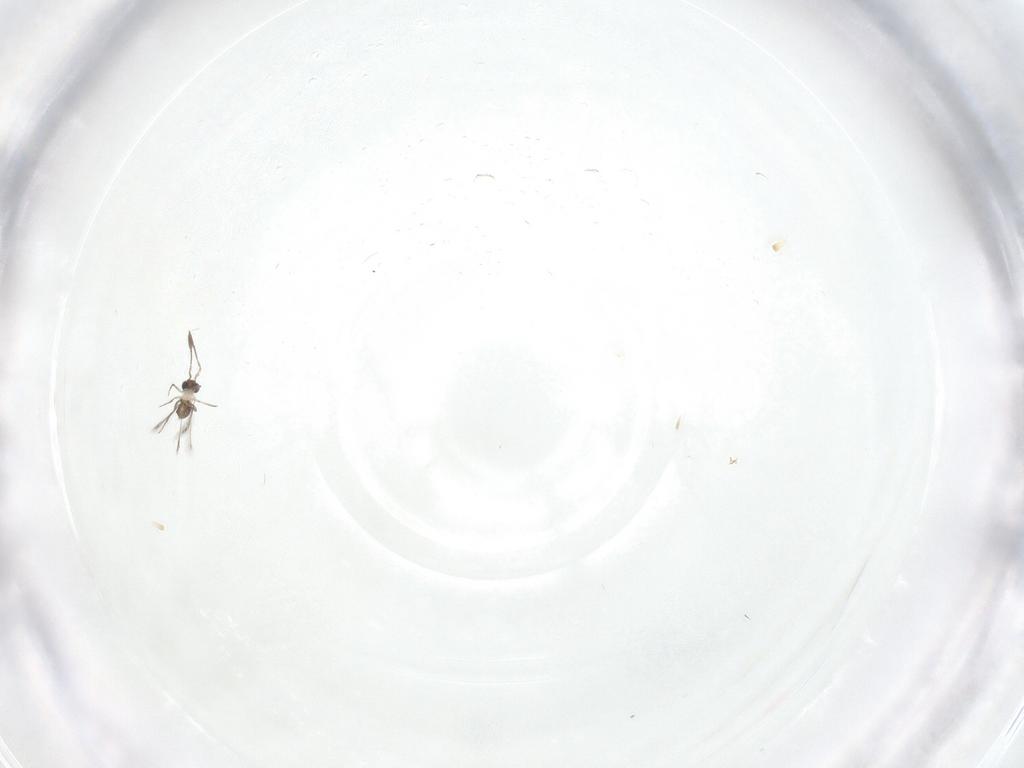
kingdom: Animalia
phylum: Arthropoda
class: Insecta
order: Hymenoptera
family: Mymaridae
